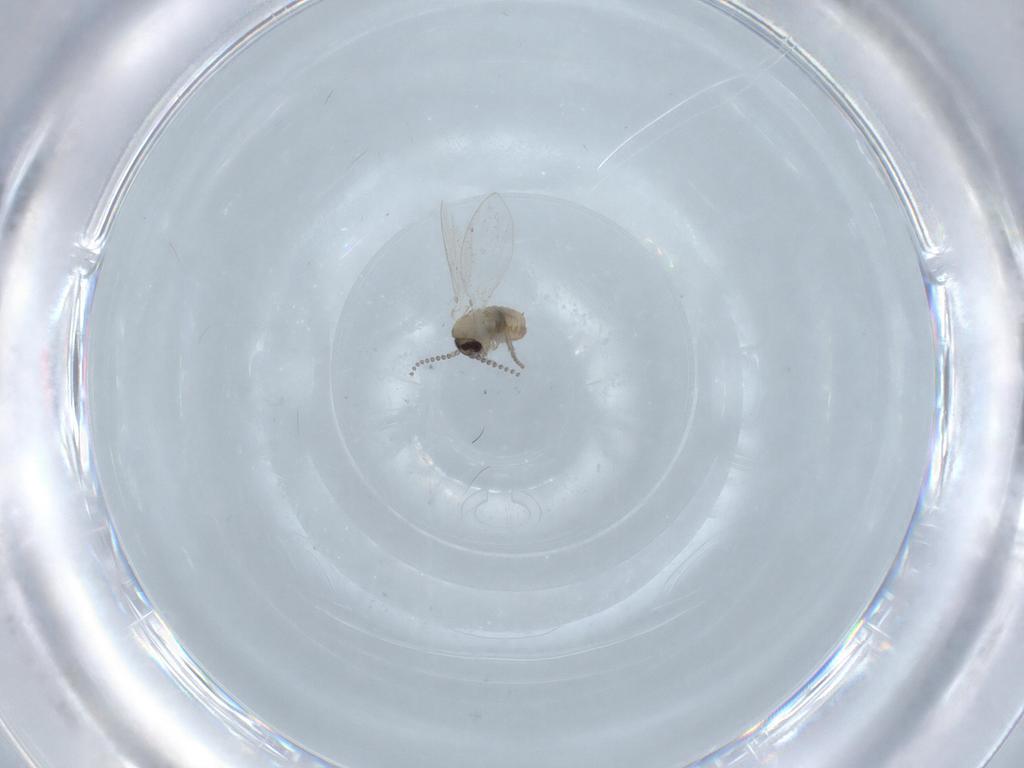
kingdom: Animalia
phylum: Arthropoda
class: Insecta
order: Diptera
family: Psychodidae
